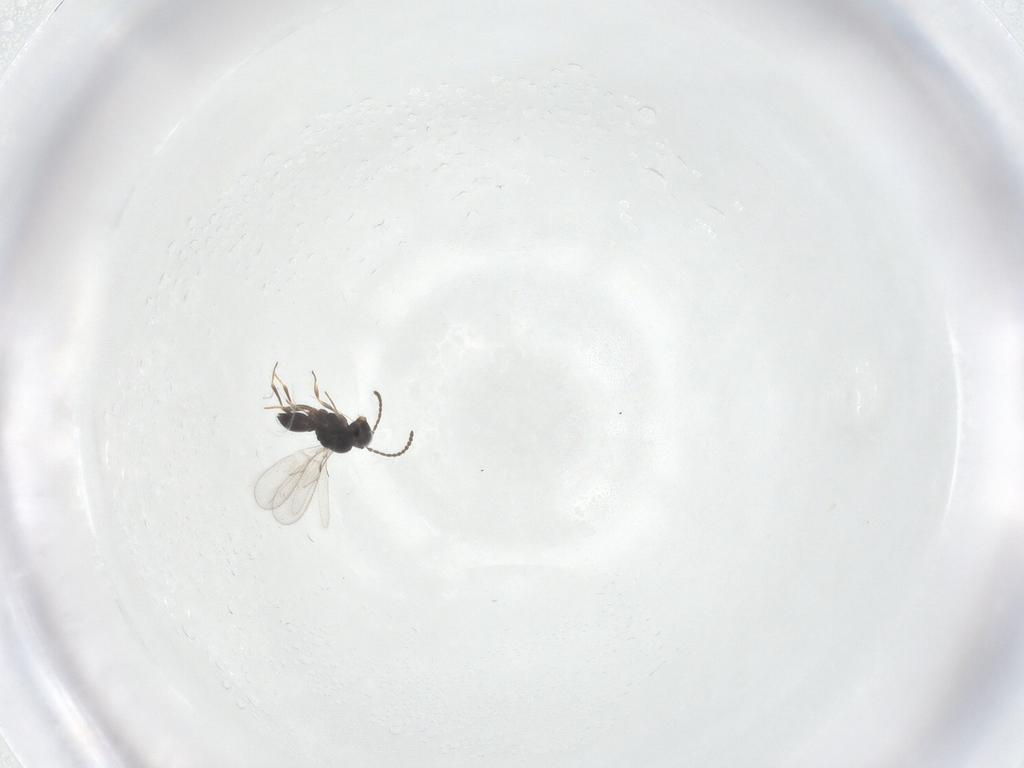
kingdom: Animalia
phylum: Arthropoda
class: Insecta
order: Hymenoptera
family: Scelionidae
